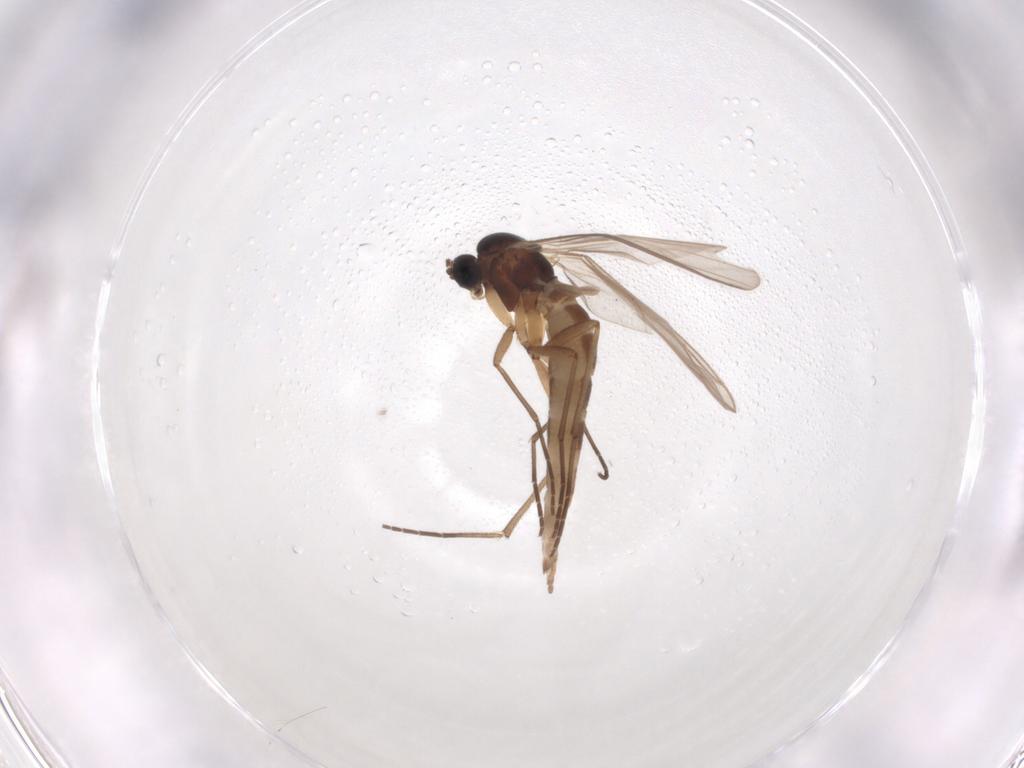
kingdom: Animalia
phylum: Arthropoda
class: Insecta
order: Diptera
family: Sciaridae
